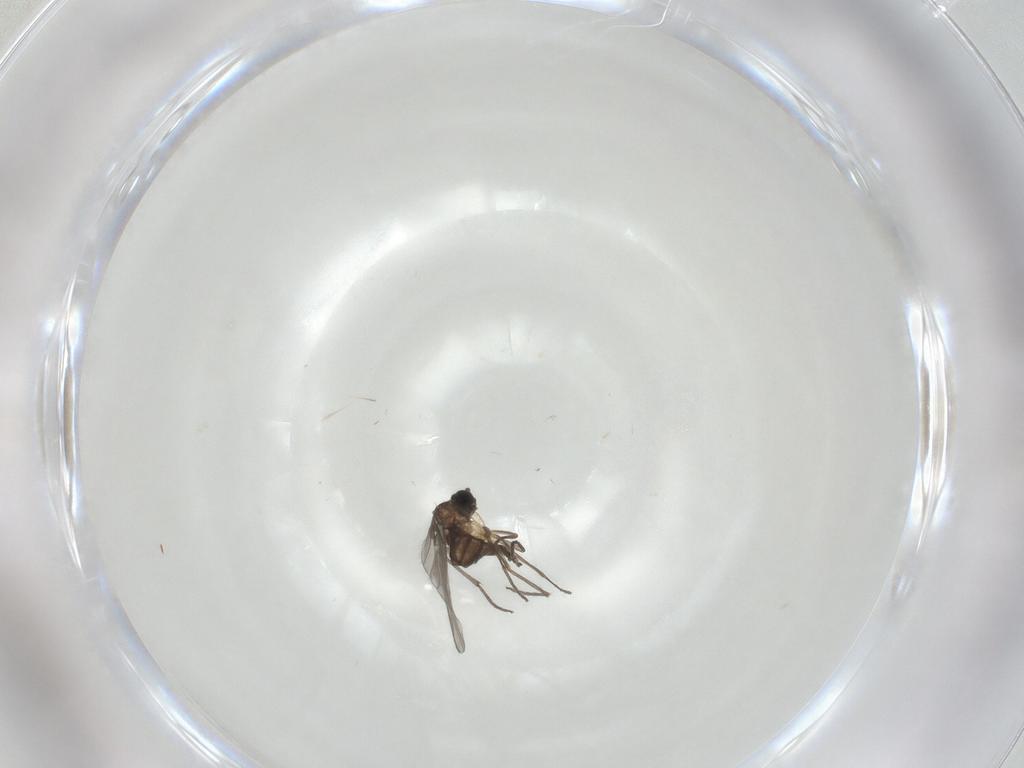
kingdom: Animalia
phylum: Arthropoda
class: Insecta
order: Diptera
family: Sciaridae
